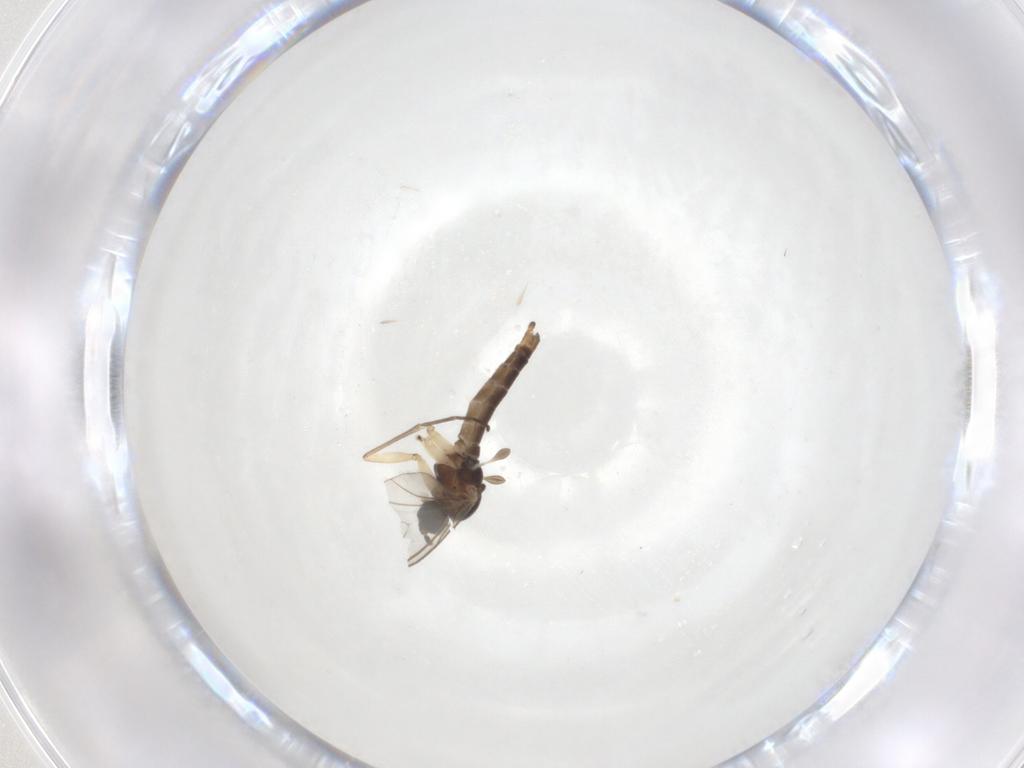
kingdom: Animalia
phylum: Arthropoda
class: Insecta
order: Diptera
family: Sciaridae
